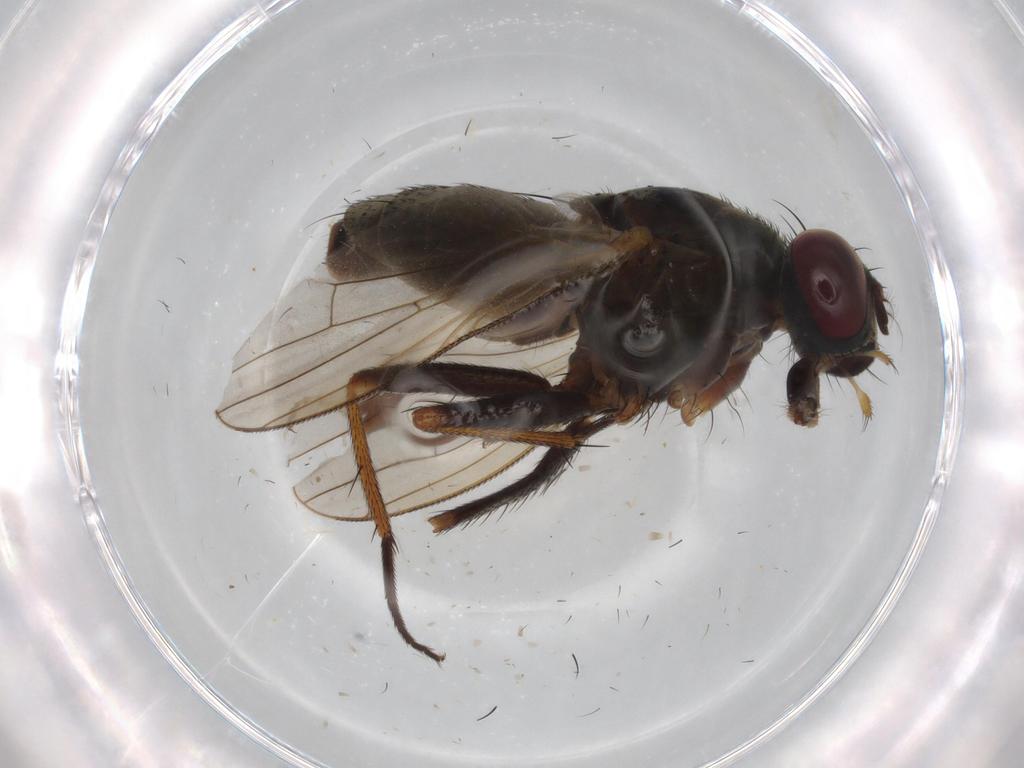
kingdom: Animalia
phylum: Arthropoda
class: Insecta
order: Diptera
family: Muscidae
